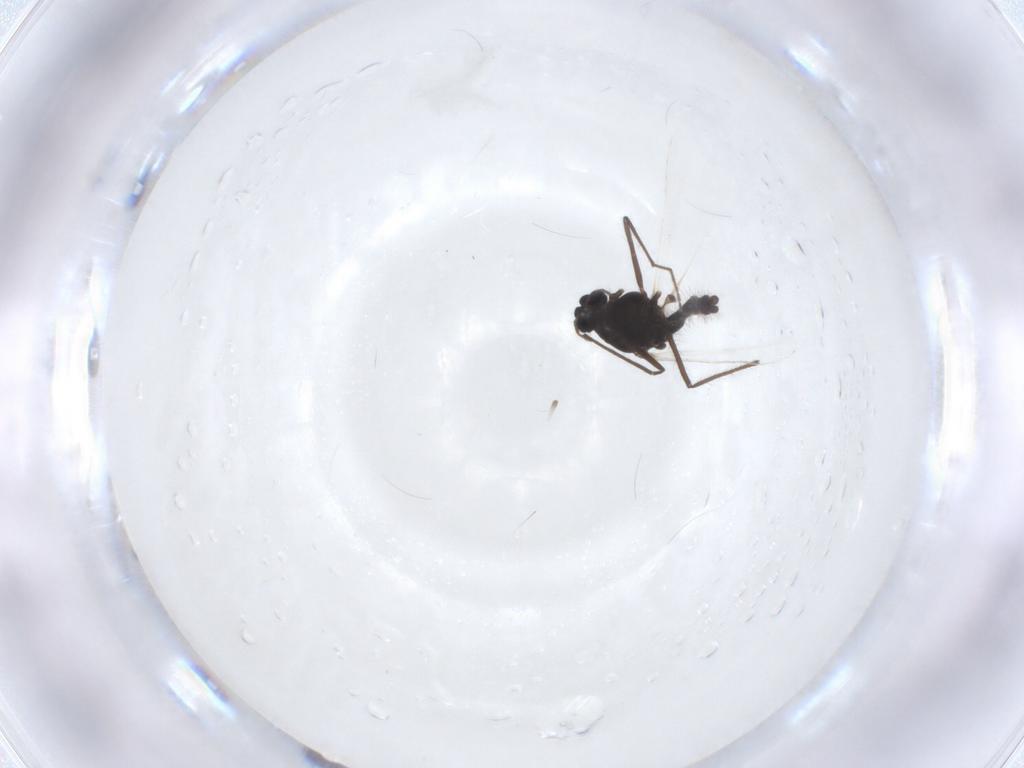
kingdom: Animalia
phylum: Arthropoda
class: Insecta
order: Diptera
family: Chironomidae
